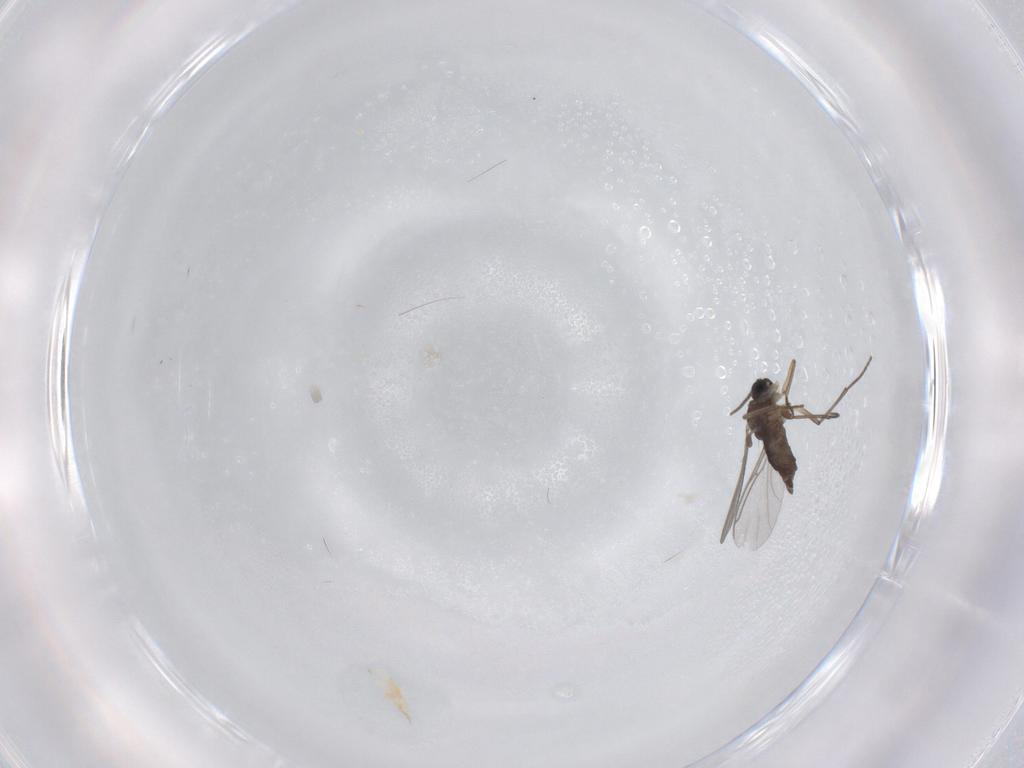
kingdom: Animalia
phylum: Arthropoda
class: Insecta
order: Diptera
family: Sciaridae
